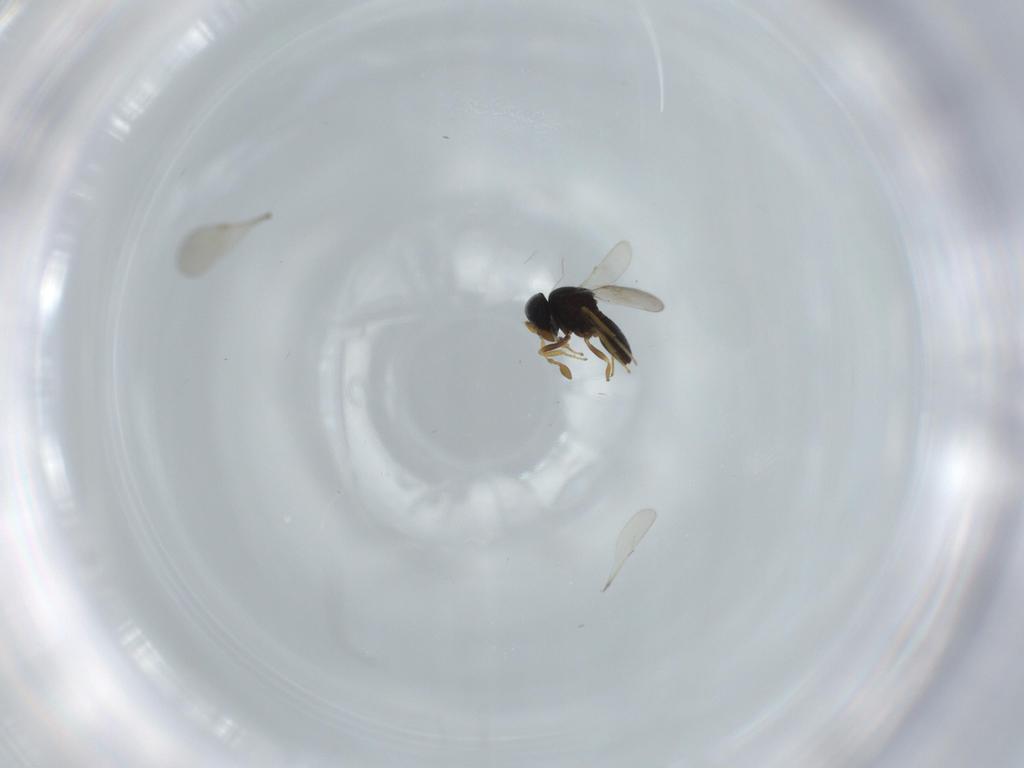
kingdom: Animalia
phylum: Arthropoda
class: Insecta
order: Hymenoptera
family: Scelionidae
